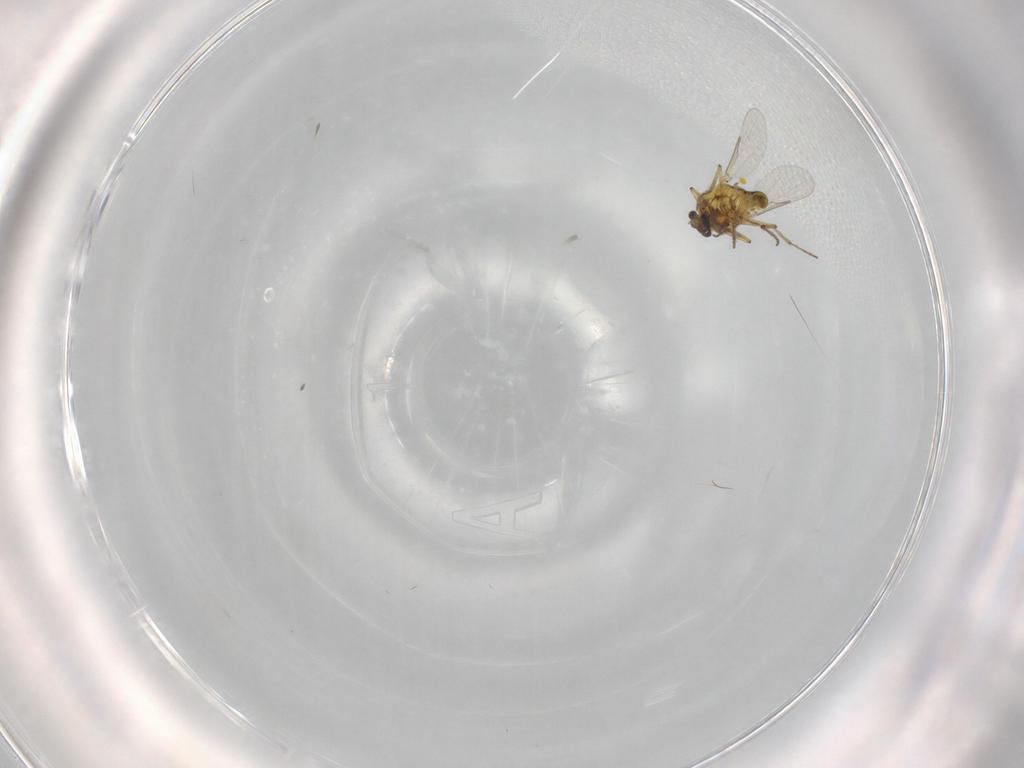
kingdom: Animalia
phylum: Arthropoda
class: Insecta
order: Diptera
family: Ceratopogonidae
